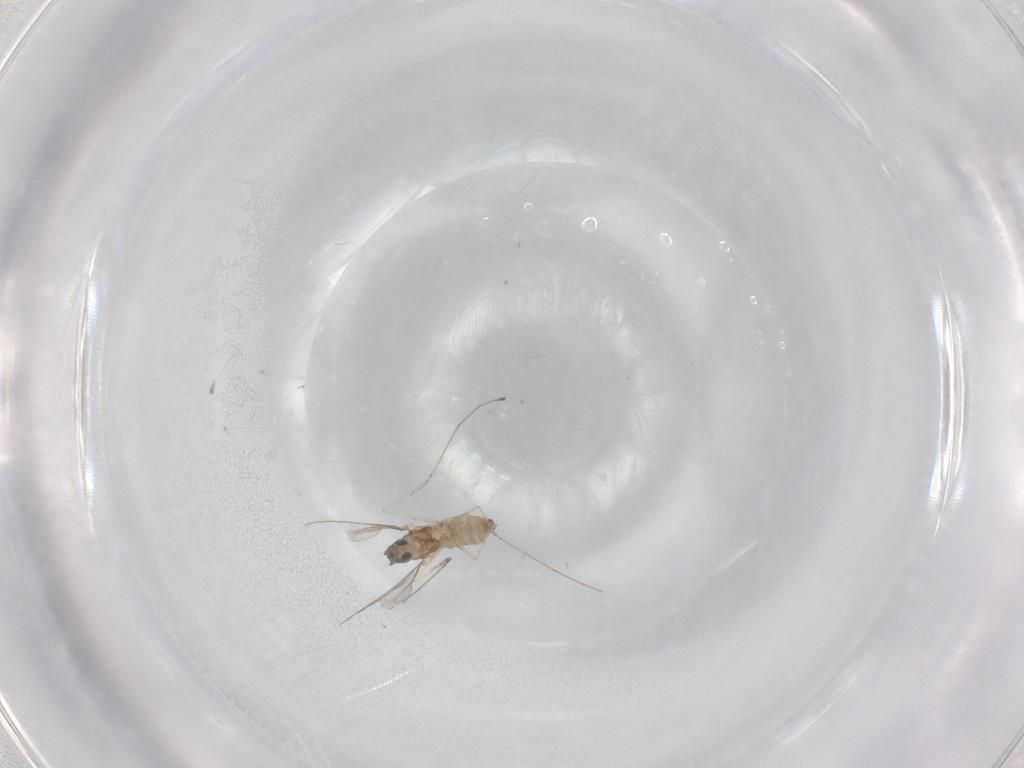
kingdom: Animalia
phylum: Arthropoda
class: Insecta
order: Diptera
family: Cecidomyiidae
